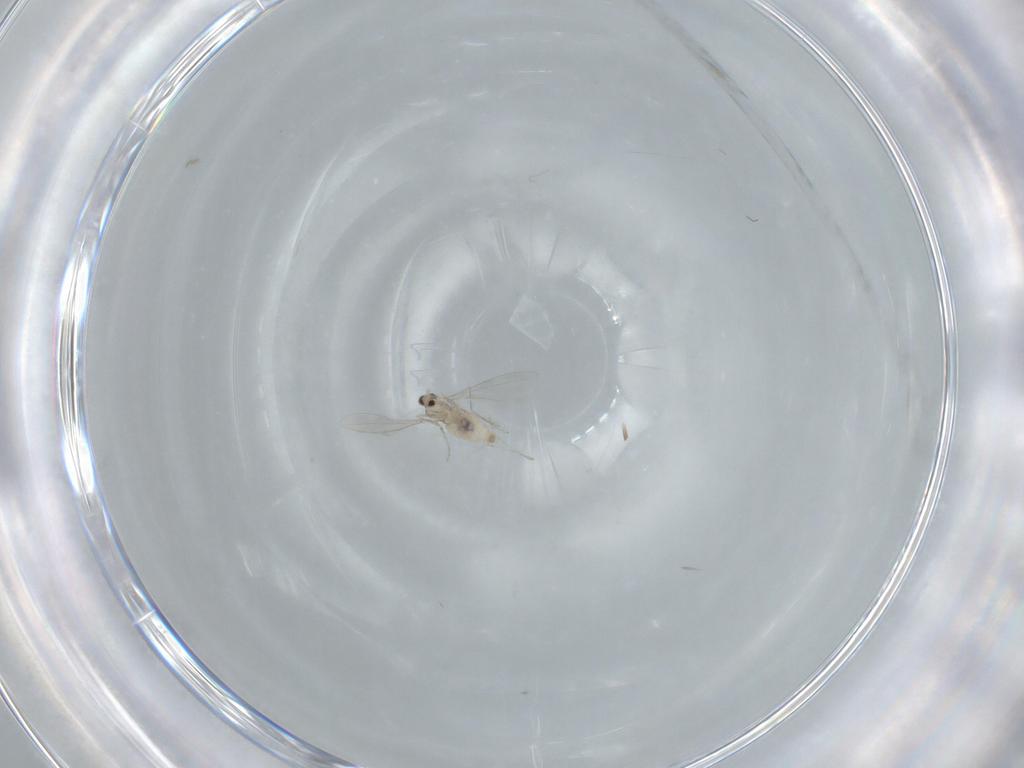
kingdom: Animalia
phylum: Arthropoda
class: Insecta
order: Diptera
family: Cecidomyiidae
